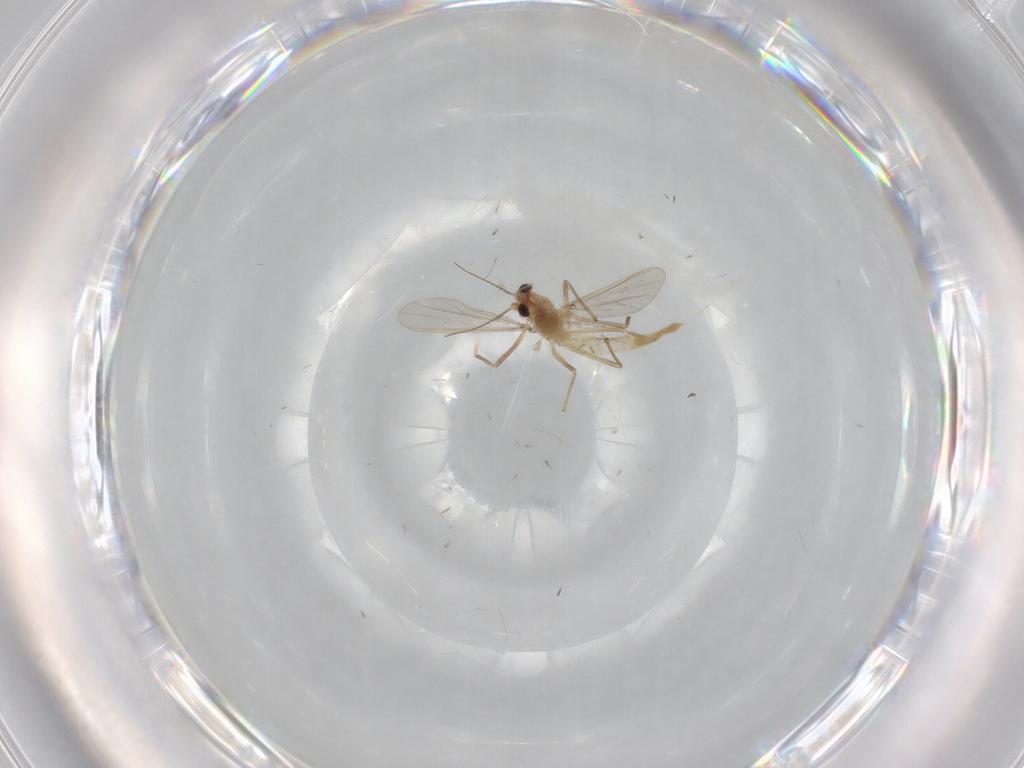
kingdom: Animalia
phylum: Arthropoda
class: Insecta
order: Diptera
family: Chironomidae
